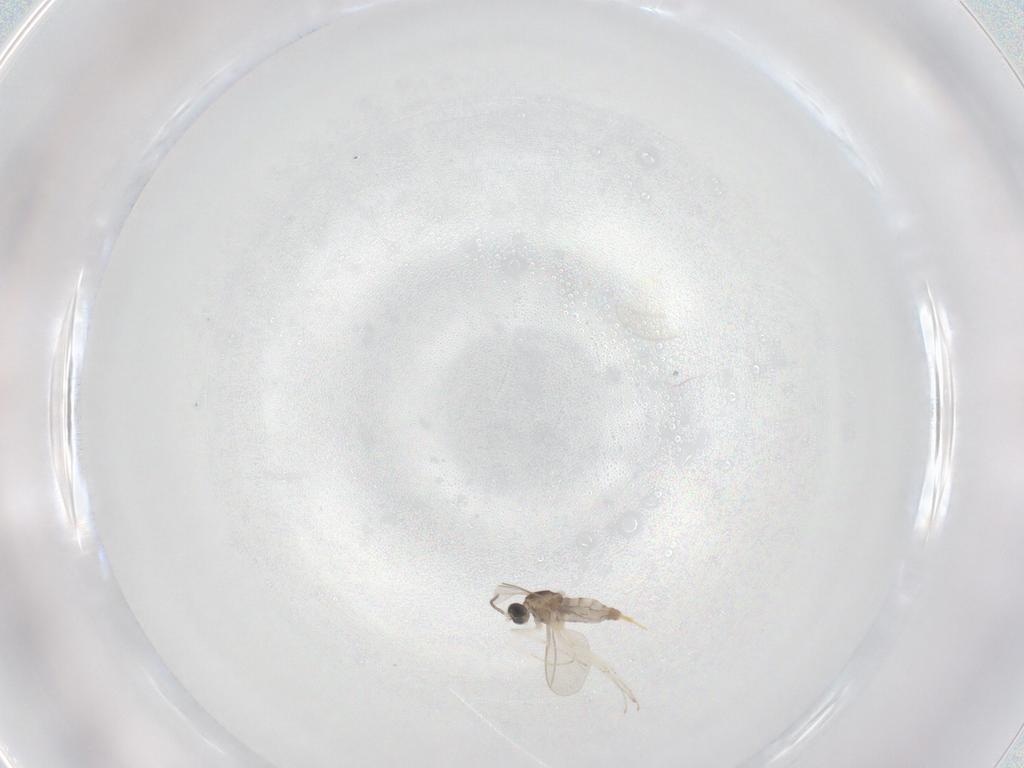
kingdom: Animalia
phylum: Arthropoda
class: Insecta
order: Diptera
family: Cecidomyiidae
